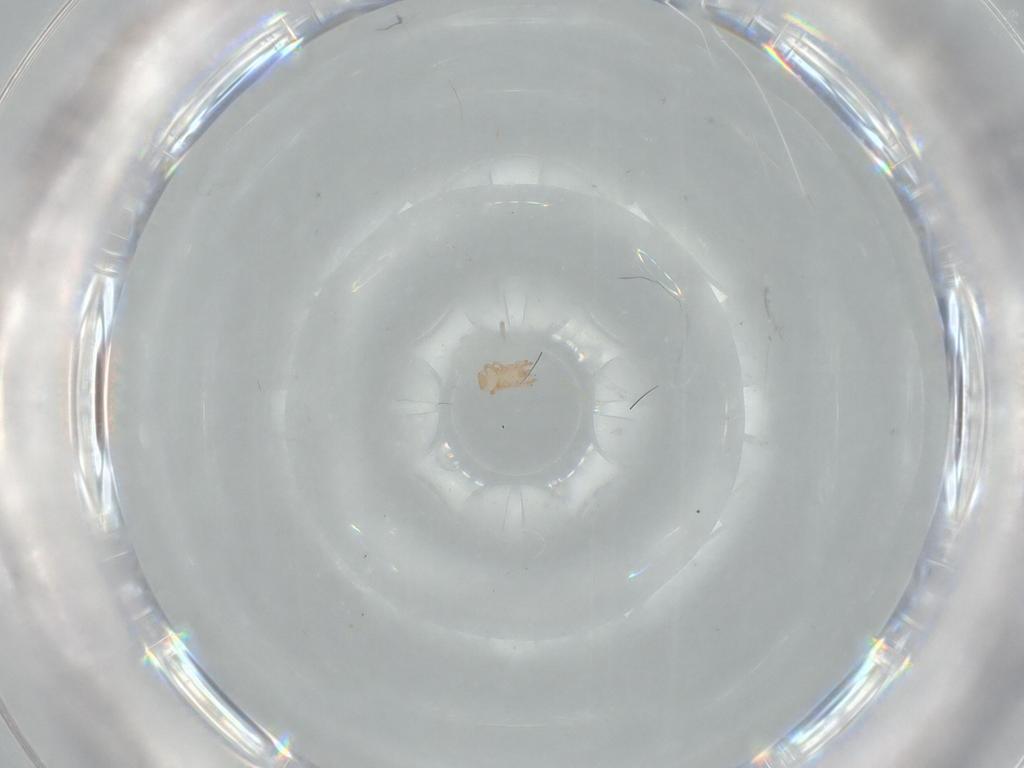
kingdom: Animalia
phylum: Arthropoda
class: Arachnida
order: Mesostigmata
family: Digamasellidae
